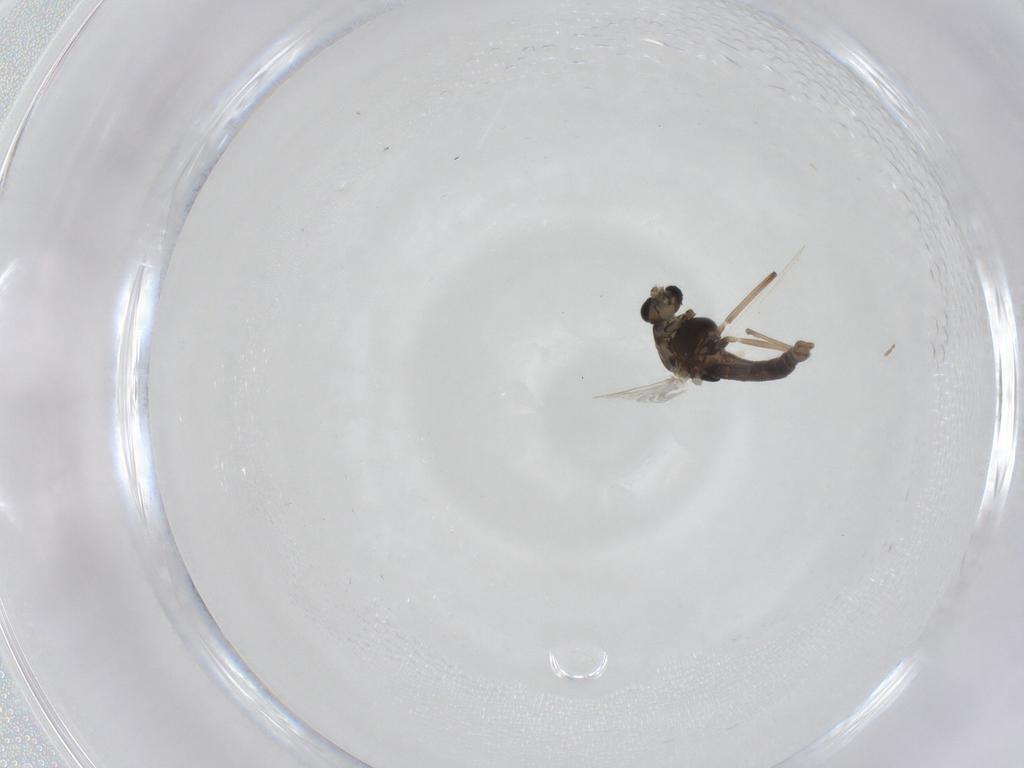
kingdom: Animalia
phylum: Arthropoda
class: Insecta
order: Diptera
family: Chironomidae
